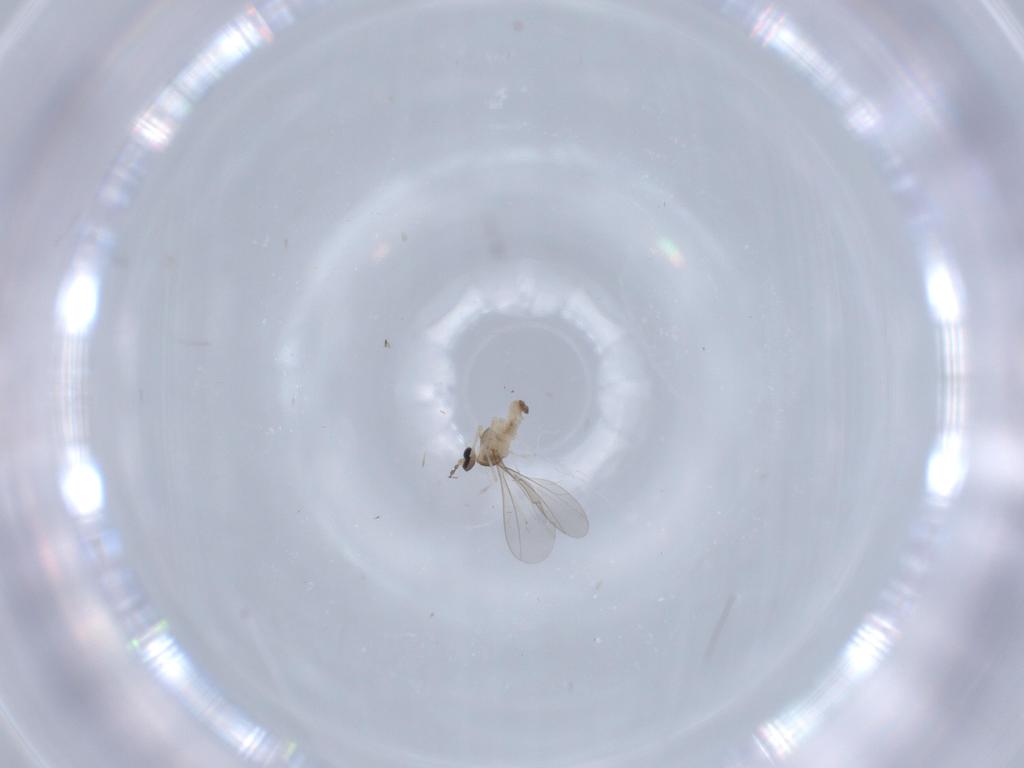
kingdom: Animalia
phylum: Arthropoda
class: Insecta
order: Diptera
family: Cecidomyiidae
